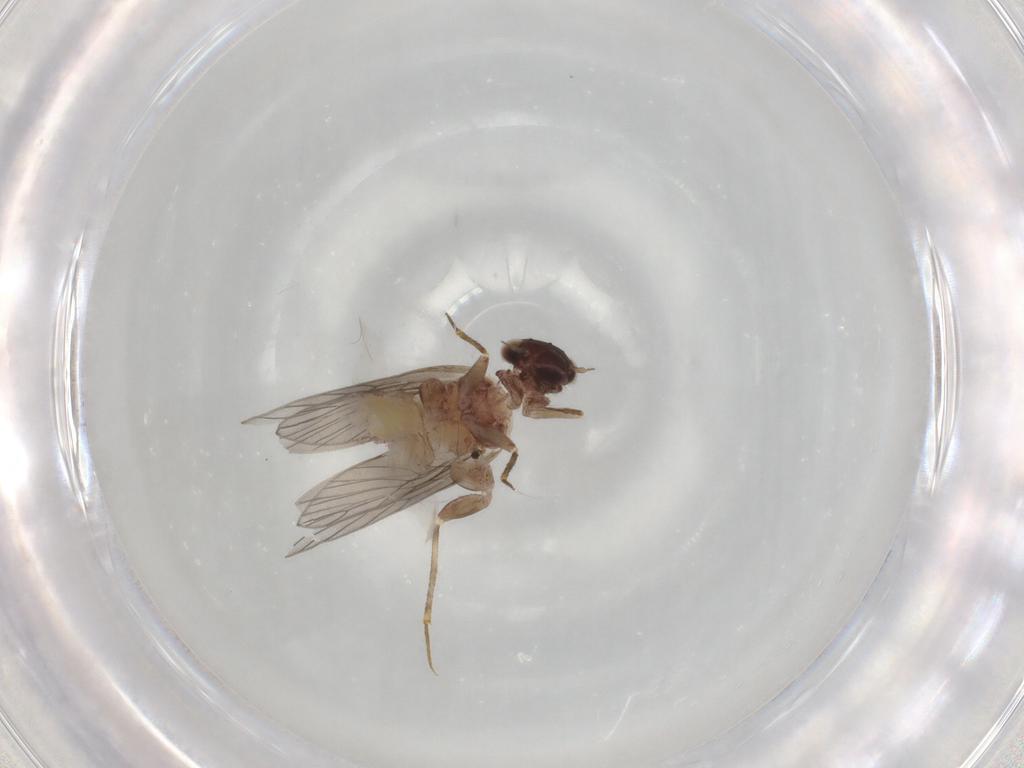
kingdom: Animalia
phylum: Arthropoda
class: Insecta
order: Psocodea
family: Lepidopsocidae
